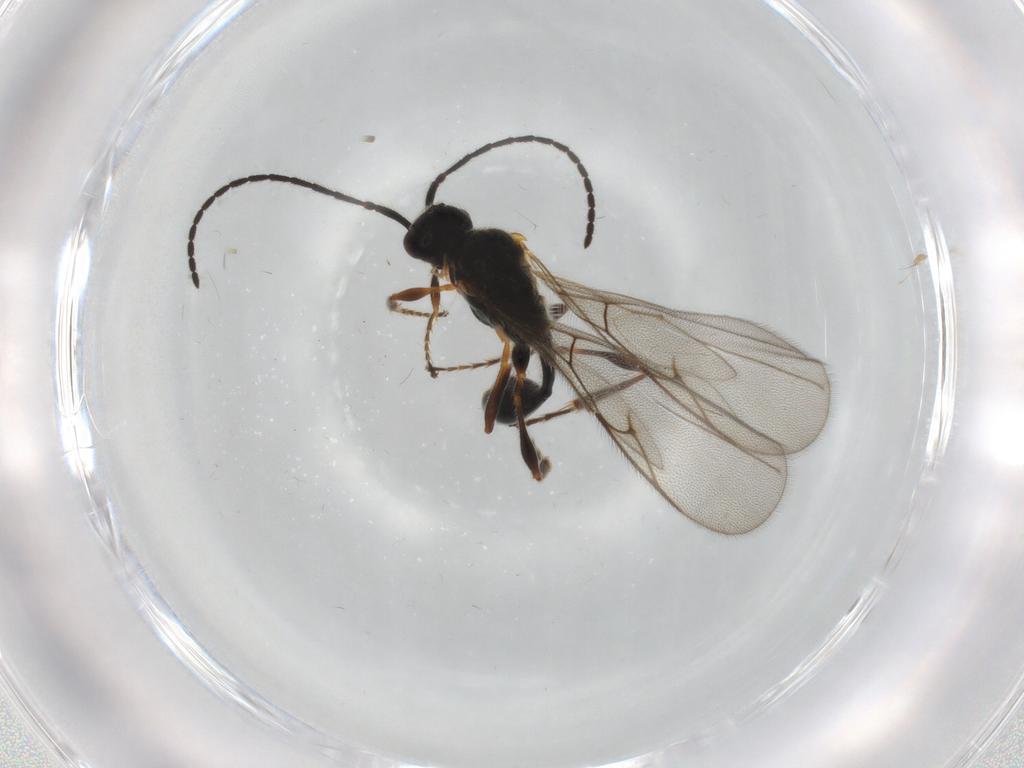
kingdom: Animalia
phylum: Arthropoda
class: Insecta
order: Hymenoptera
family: Diapriidae
